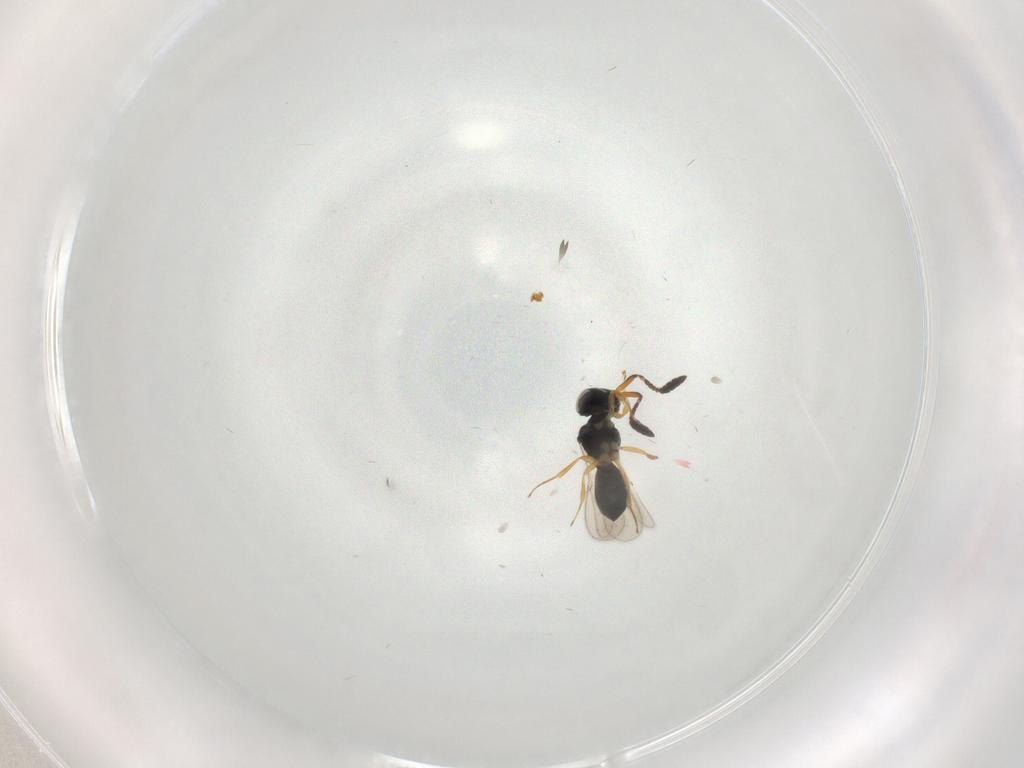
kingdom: Animalia
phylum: Arthropoda
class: Insecta
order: Hymenoptera
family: Scelionidae
